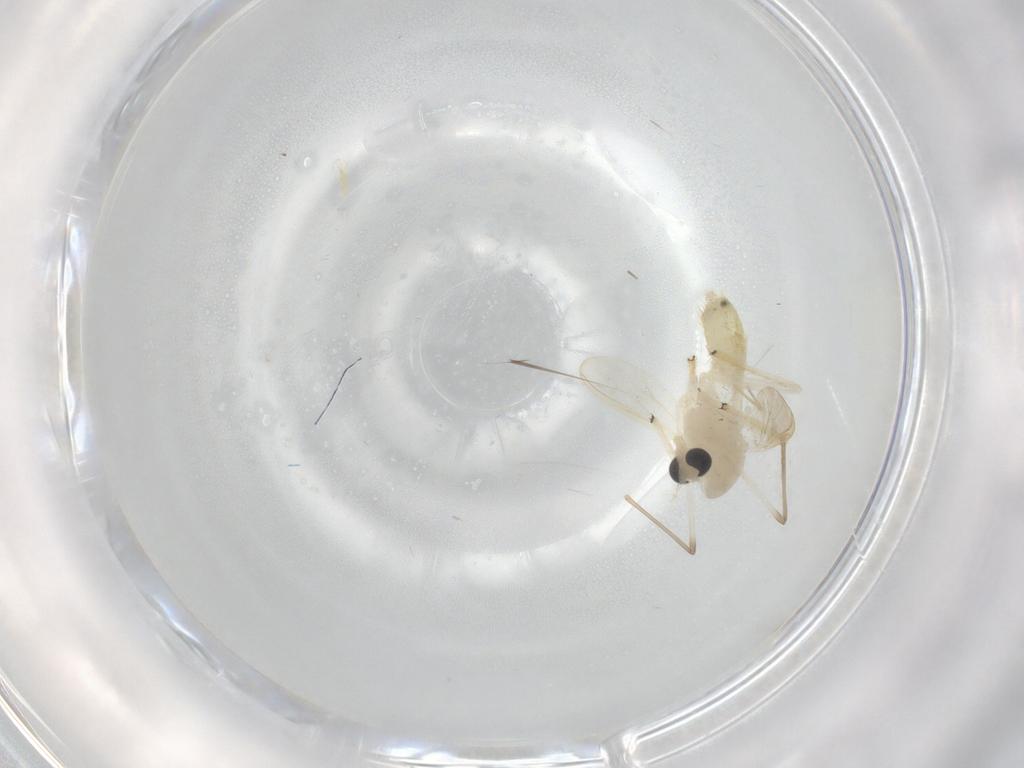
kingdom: Animalia
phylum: Arthropoda
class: Insecta
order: Diptera
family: Chironomidae
